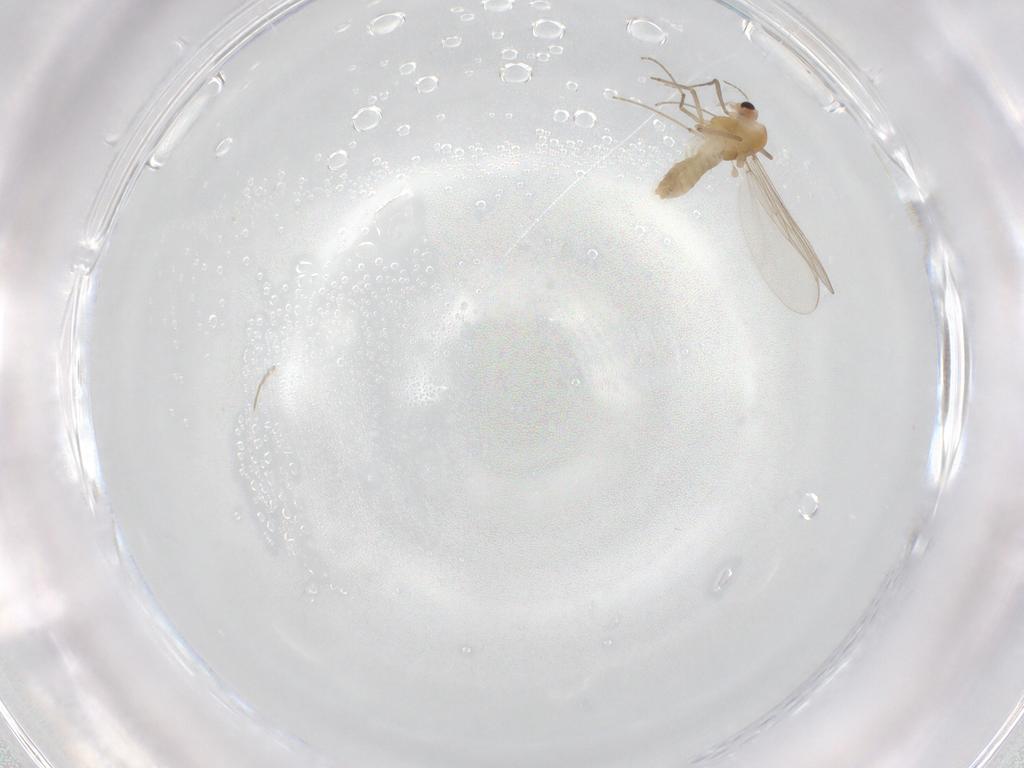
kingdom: Animalia
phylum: Arthropoda
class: Insecta
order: Diptera
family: Chironomidae
